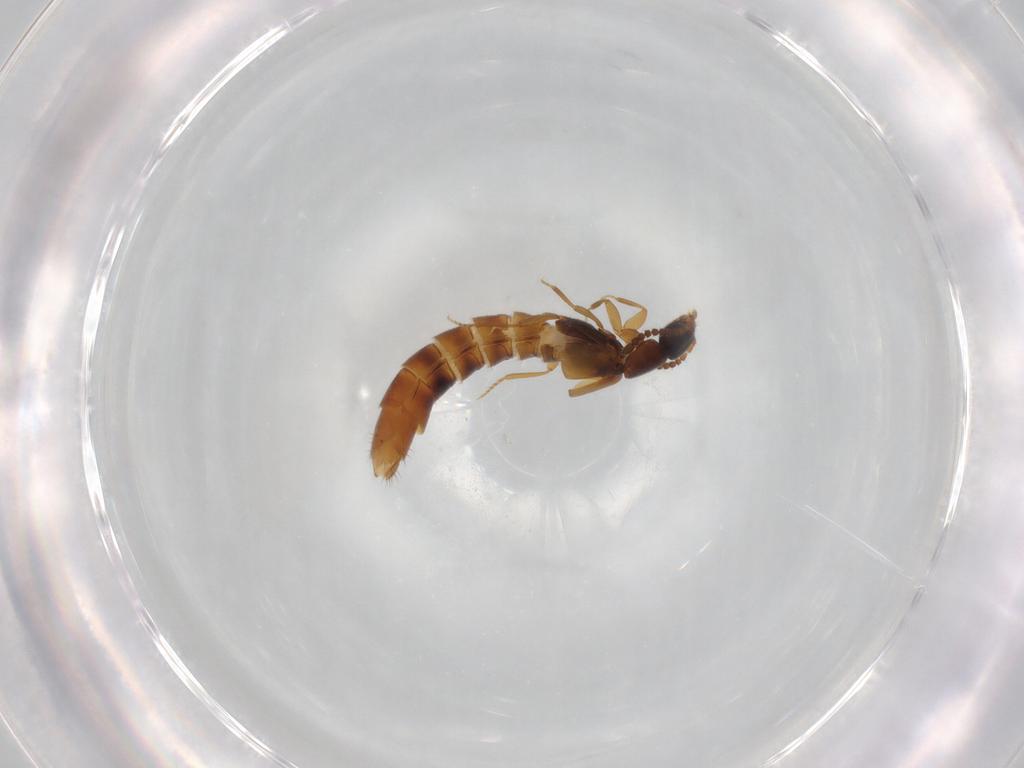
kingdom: Animalia
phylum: Arthropoda
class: Insecta
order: Coleoptera
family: Staphylinidae
